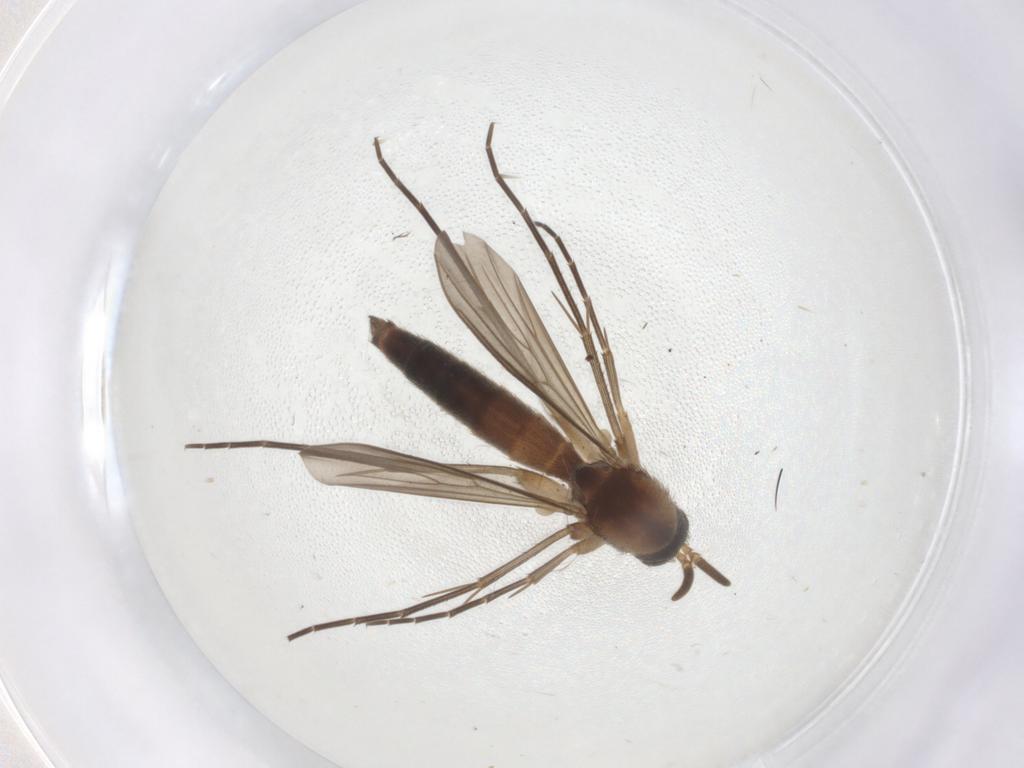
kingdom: Animalia
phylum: Arthropoda
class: Insecta
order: Diptera
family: Mycetophilidae
